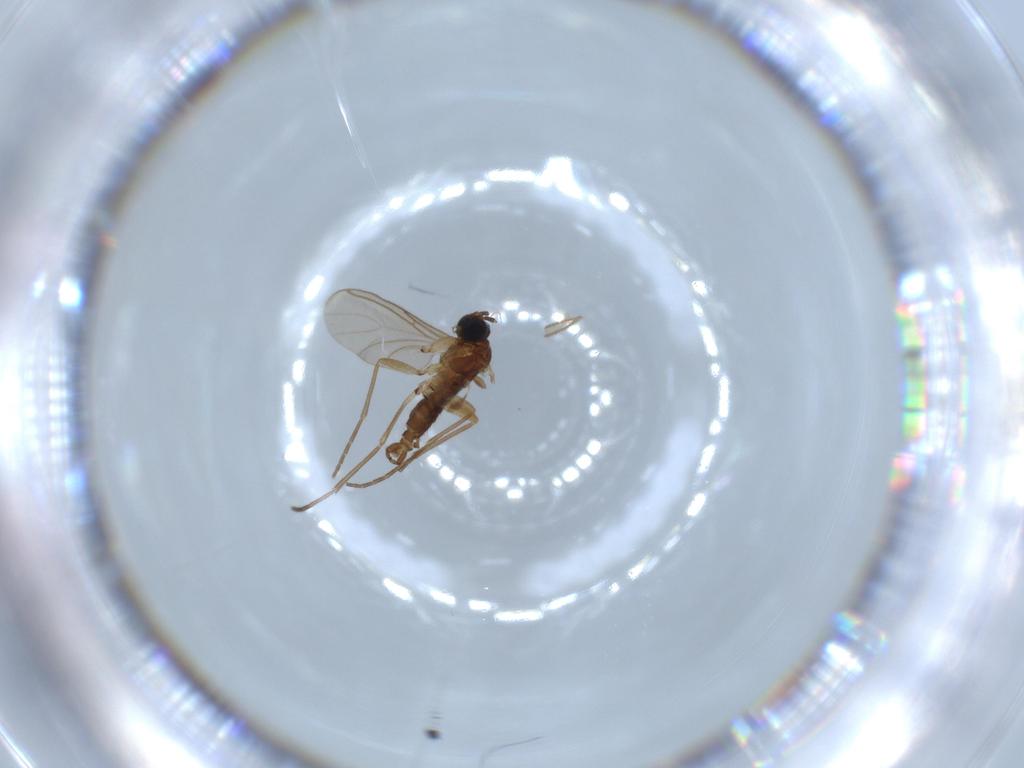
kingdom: Animalia
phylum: Arthropoda
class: Insecta
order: Diptera
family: Sciaridae
